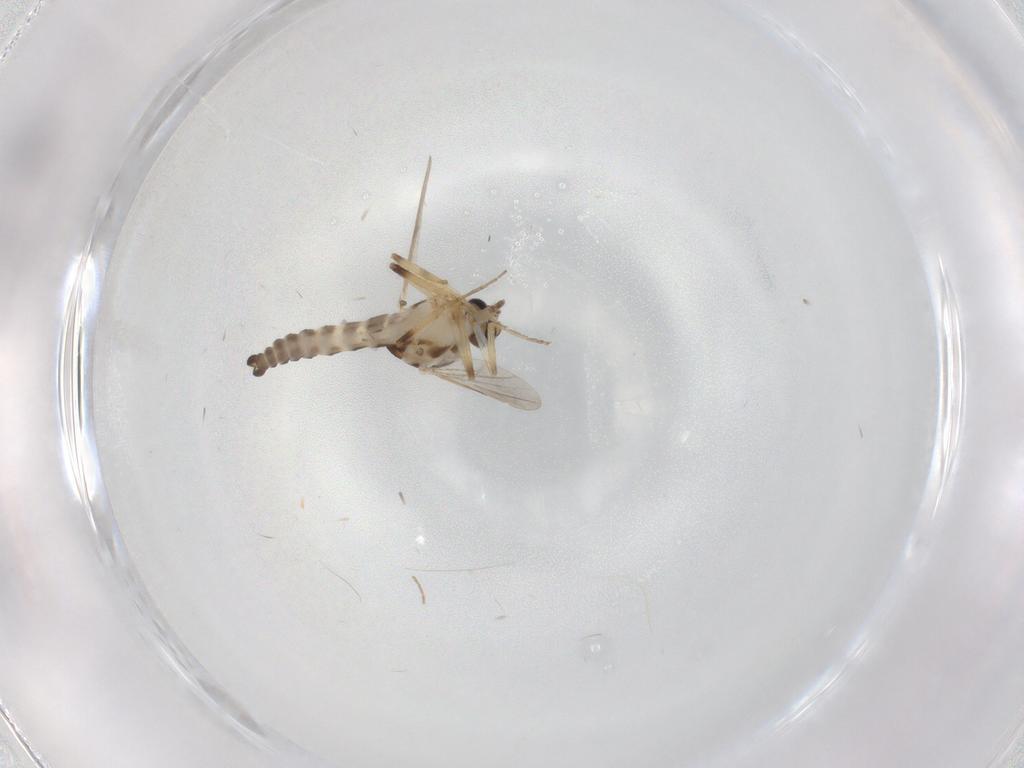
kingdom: Animalia
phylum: Arthropoda
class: Insecta
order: Diptera
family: Ceratopogonidae
